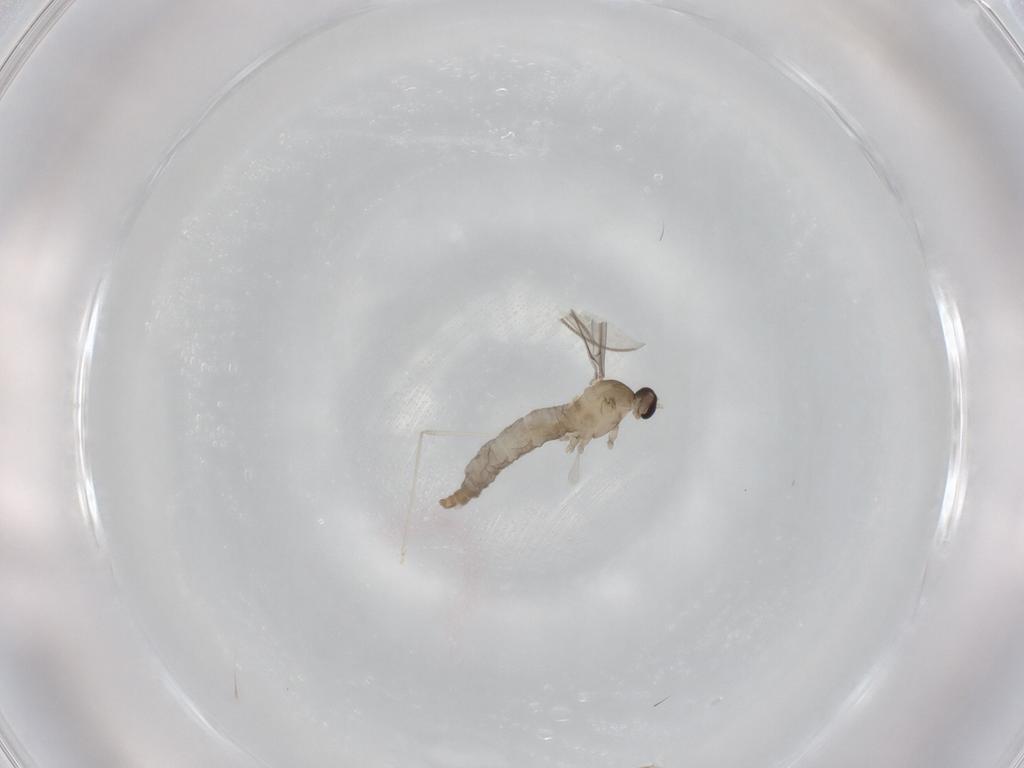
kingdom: Animalia
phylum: Arthropoda
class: Insecta
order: Diptera
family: Cecidomyiidae
